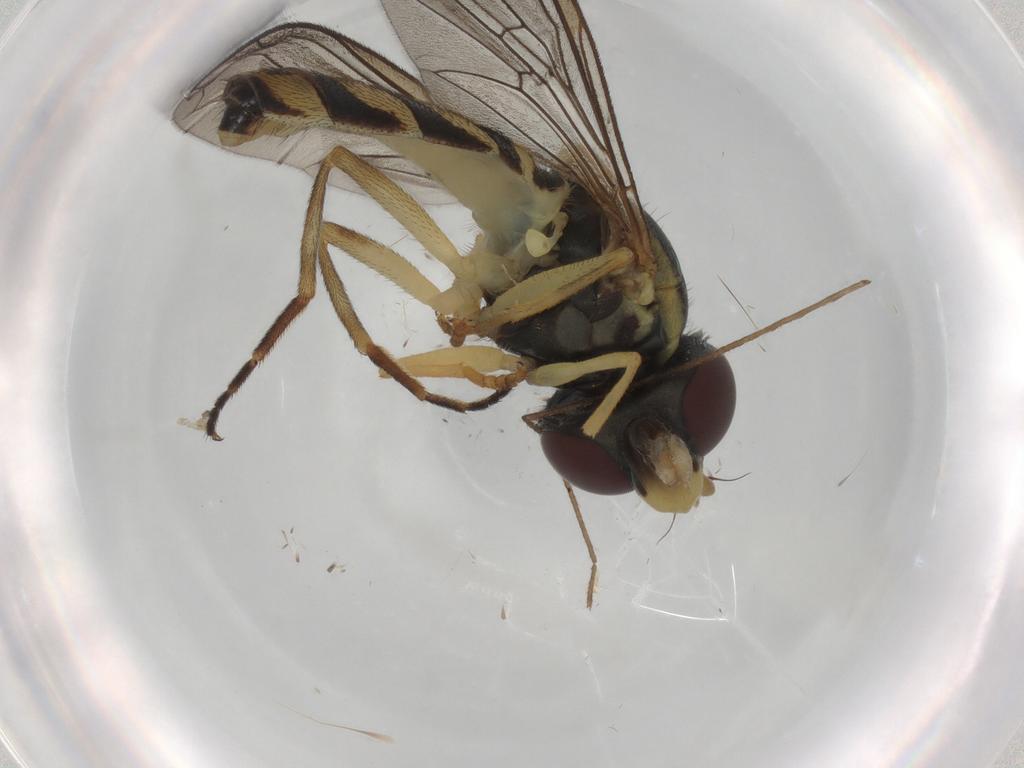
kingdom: Animalia
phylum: Arthropoda
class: Insecta
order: Diptera
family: Syrphidae
